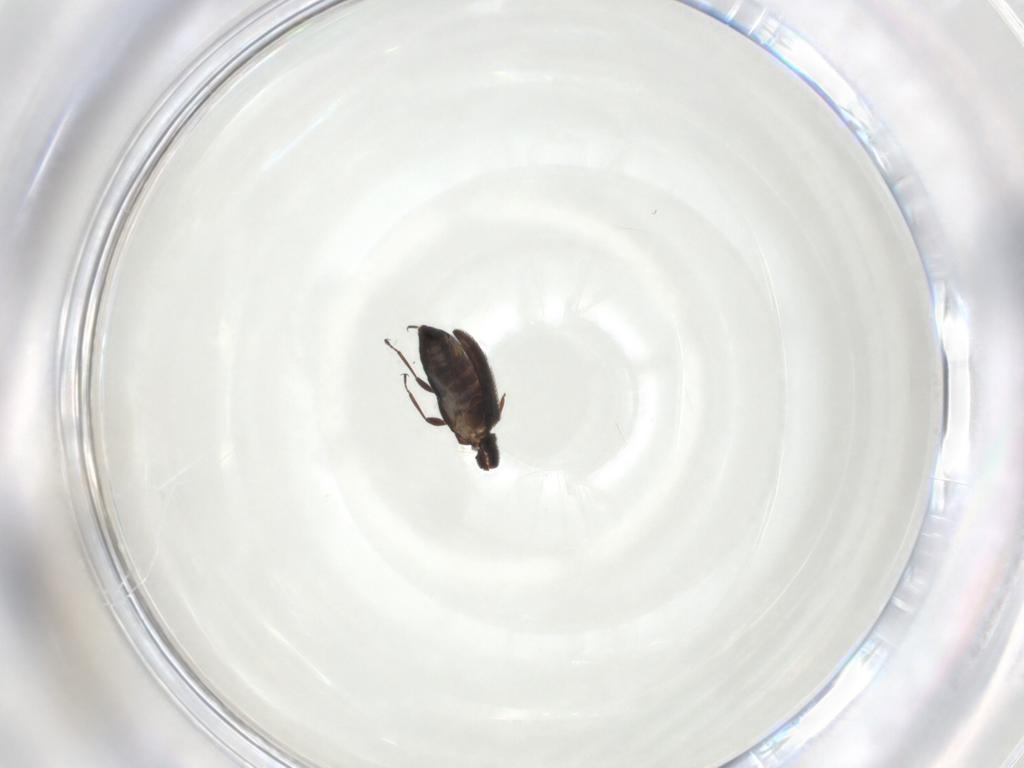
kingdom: Animalia
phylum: Arthropoda
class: Insecta
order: Coleoptera
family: Latridiidae
